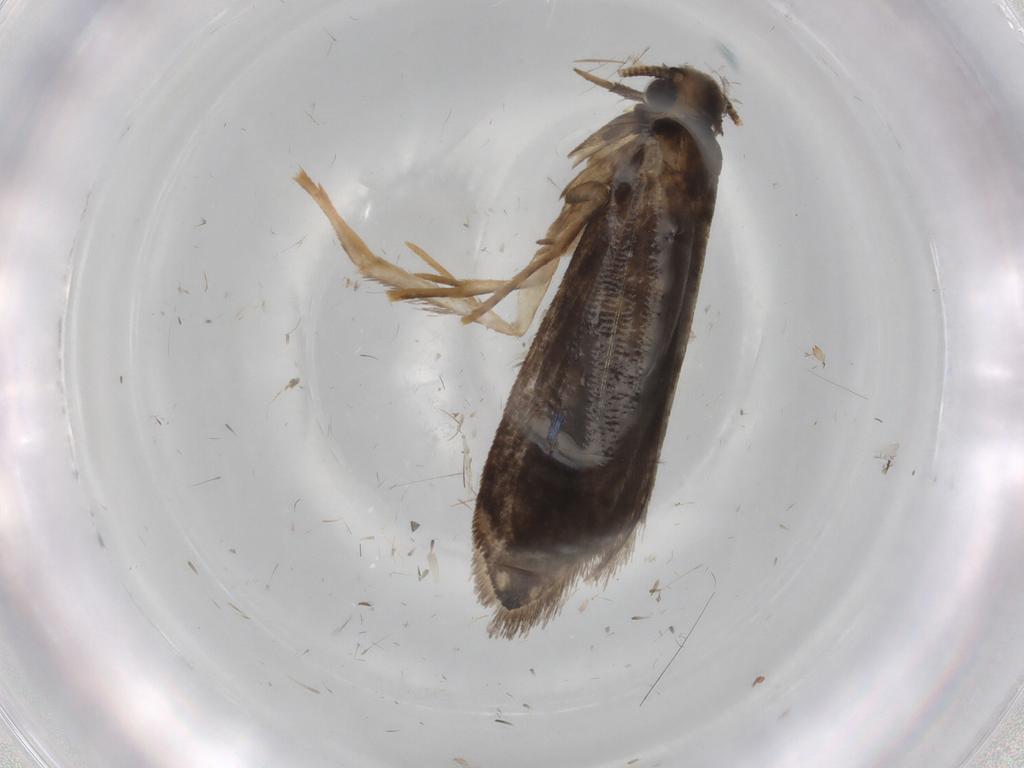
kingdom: Animalia
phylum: Arthropoda
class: Insecta
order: Lepidoptera
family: Tineidae
